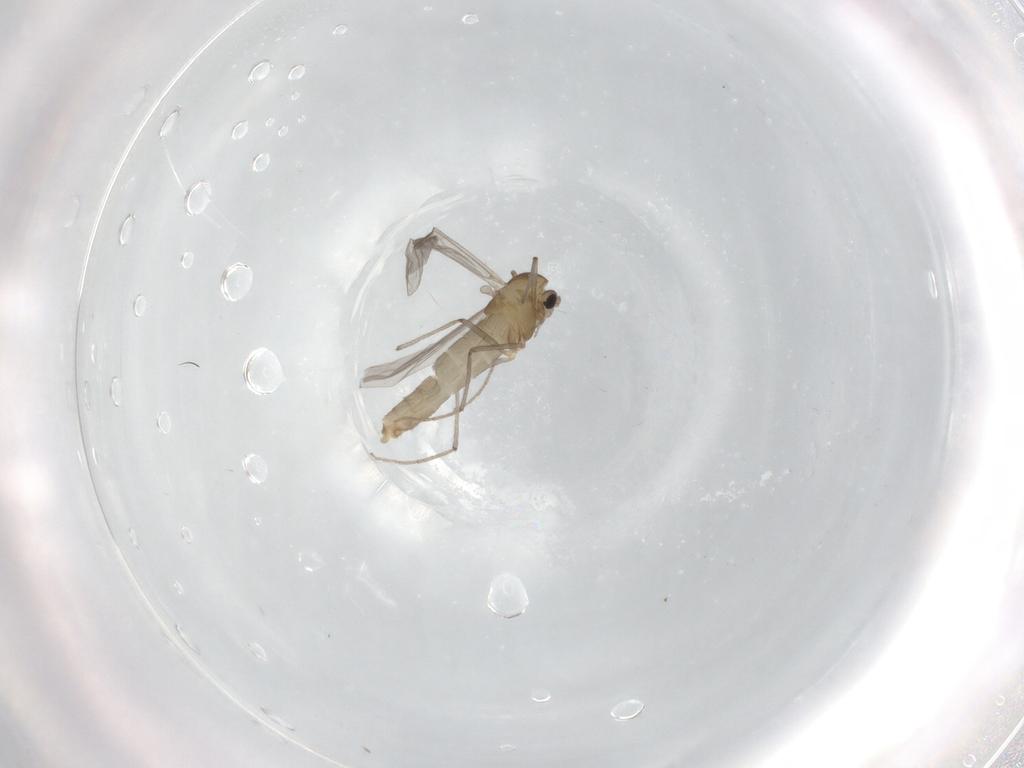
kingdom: Animalia
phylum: Arthropoda
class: Insecta
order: Diptera
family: Chironomidae
